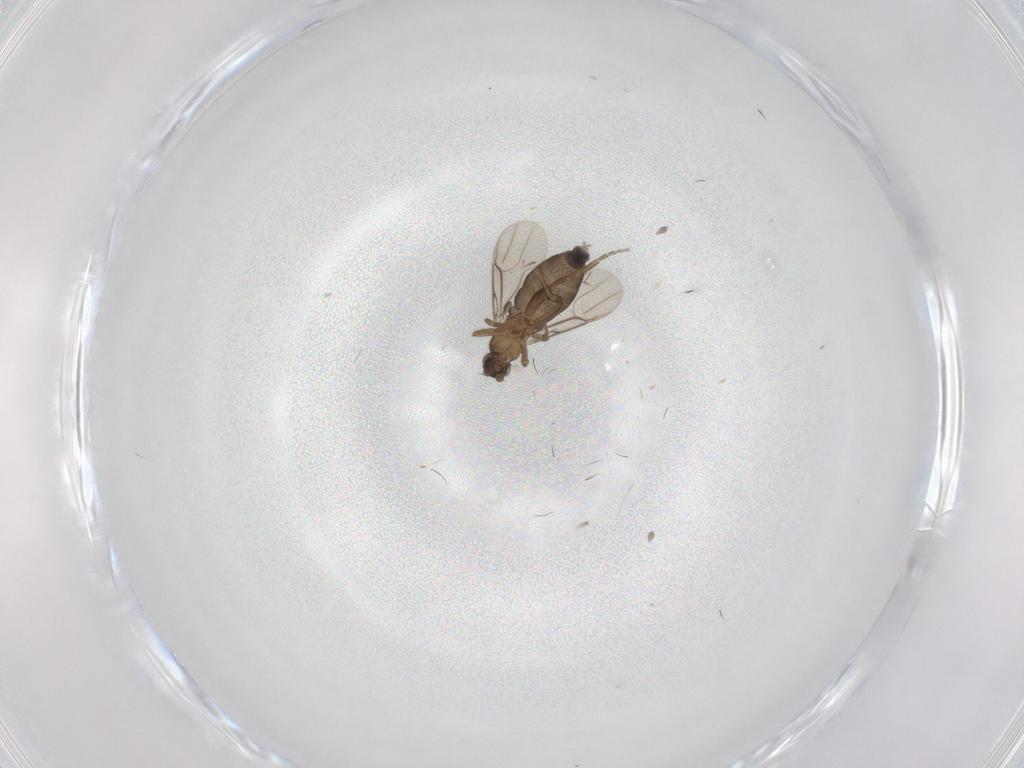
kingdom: Animalia
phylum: Arthropoda
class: Insecta
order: Diptera
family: Phoridae
